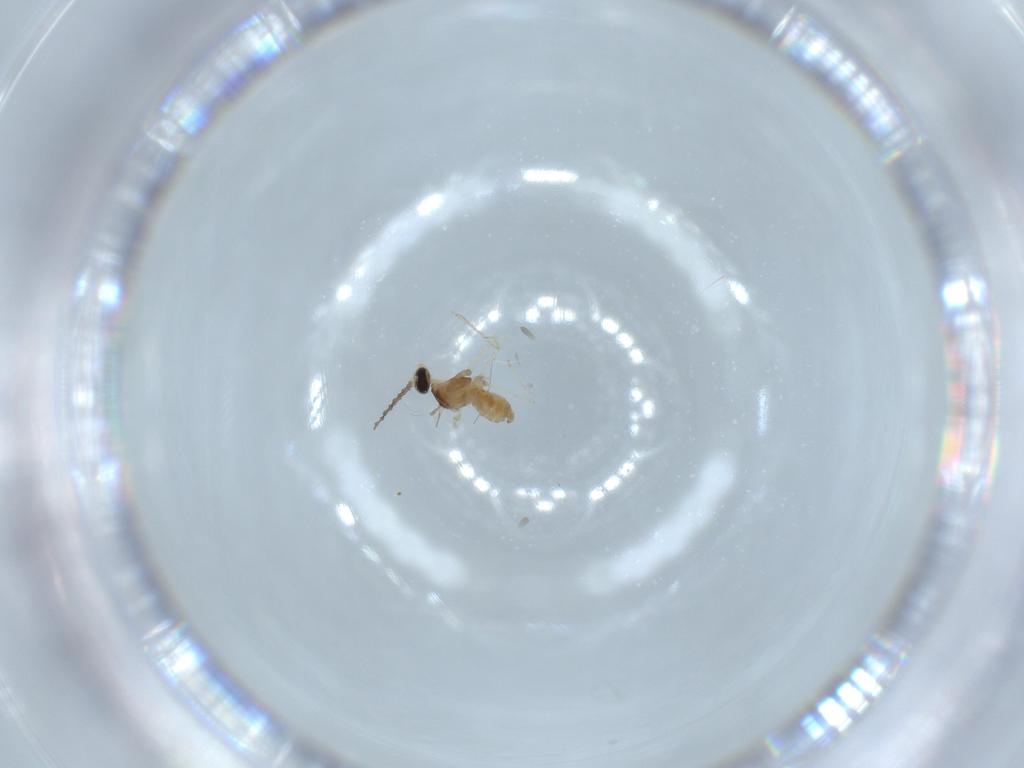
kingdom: Animalia
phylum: Arthropoda
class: Insecta
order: Diptera
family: Cecidomyiidae
